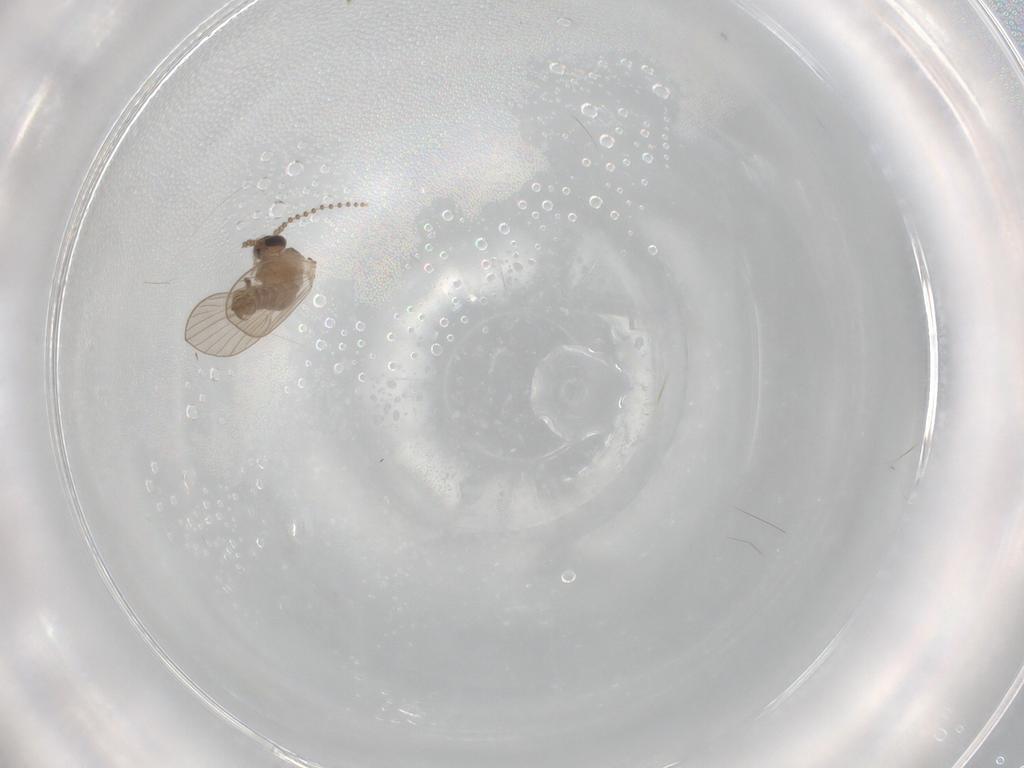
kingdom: Animalia
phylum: Arthropoda
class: Insecta
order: Diptera
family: Psychodidae
